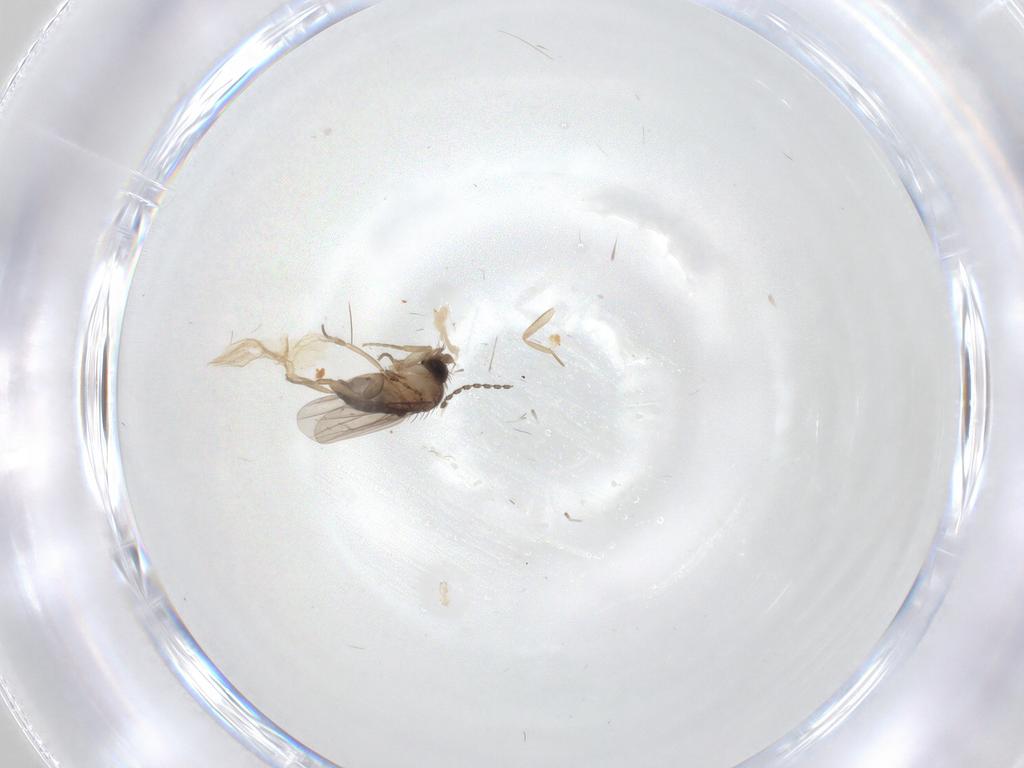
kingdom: Animalia
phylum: Arthropoda
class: Insecta
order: Diptera
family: Phoridae
